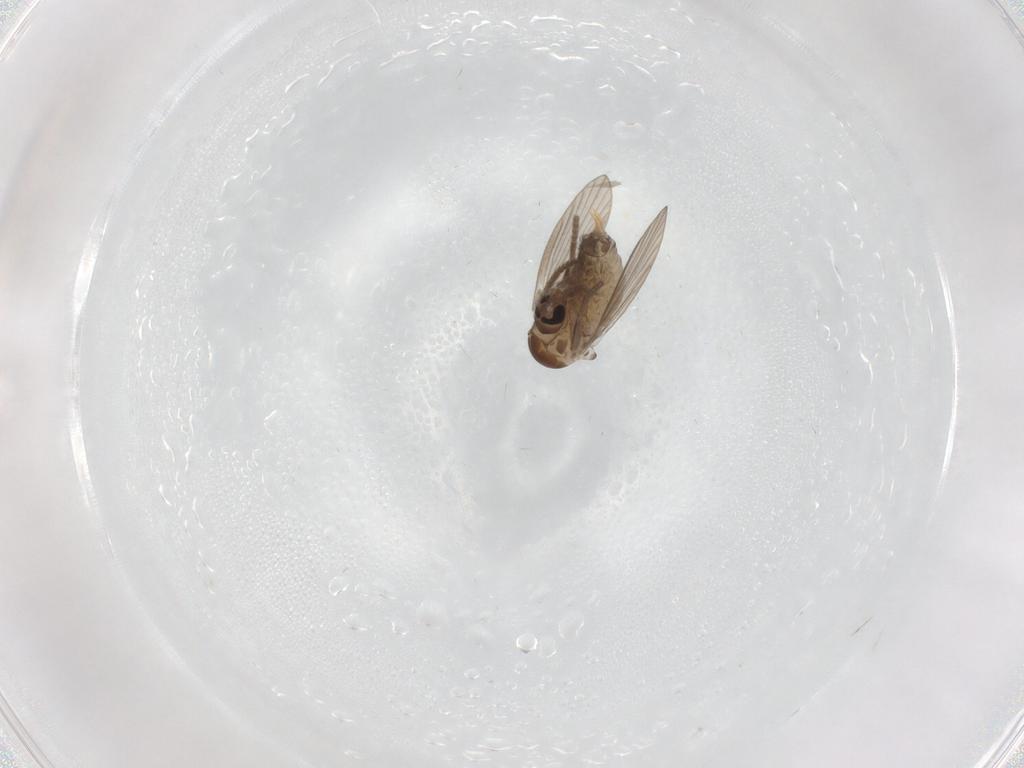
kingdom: Animalia
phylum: Arthropoda
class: Insecta
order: Diptera
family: Psychodidae
